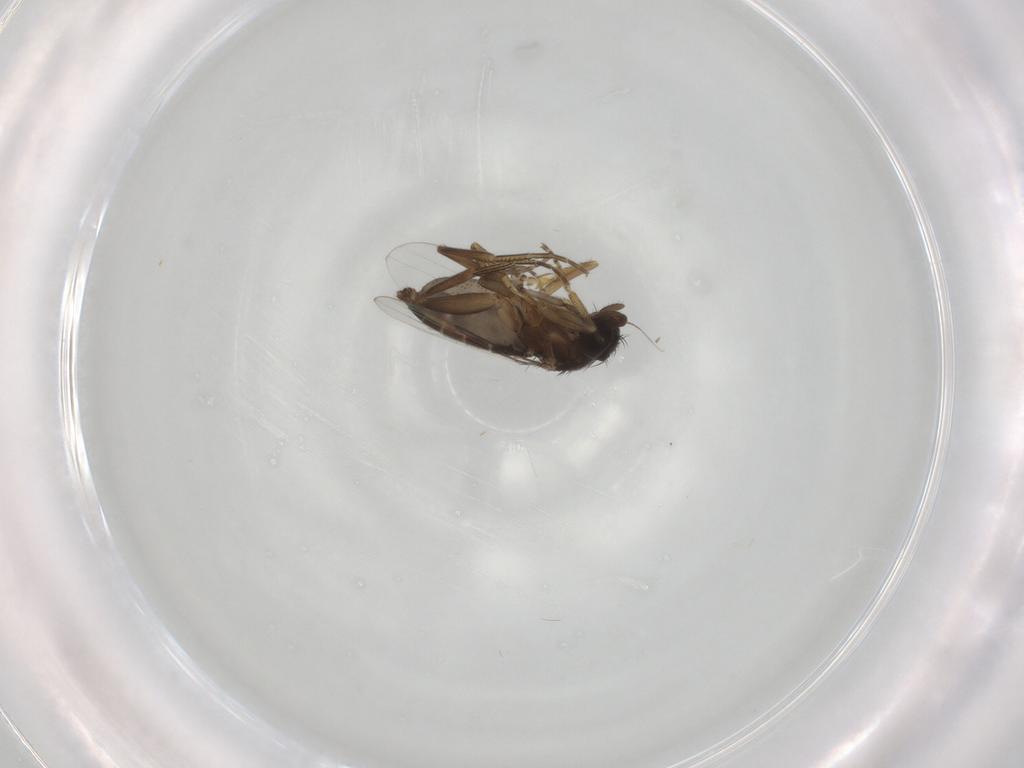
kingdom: Animalia
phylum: Arthropoda
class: Insecta
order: Diptera
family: Phoridae
